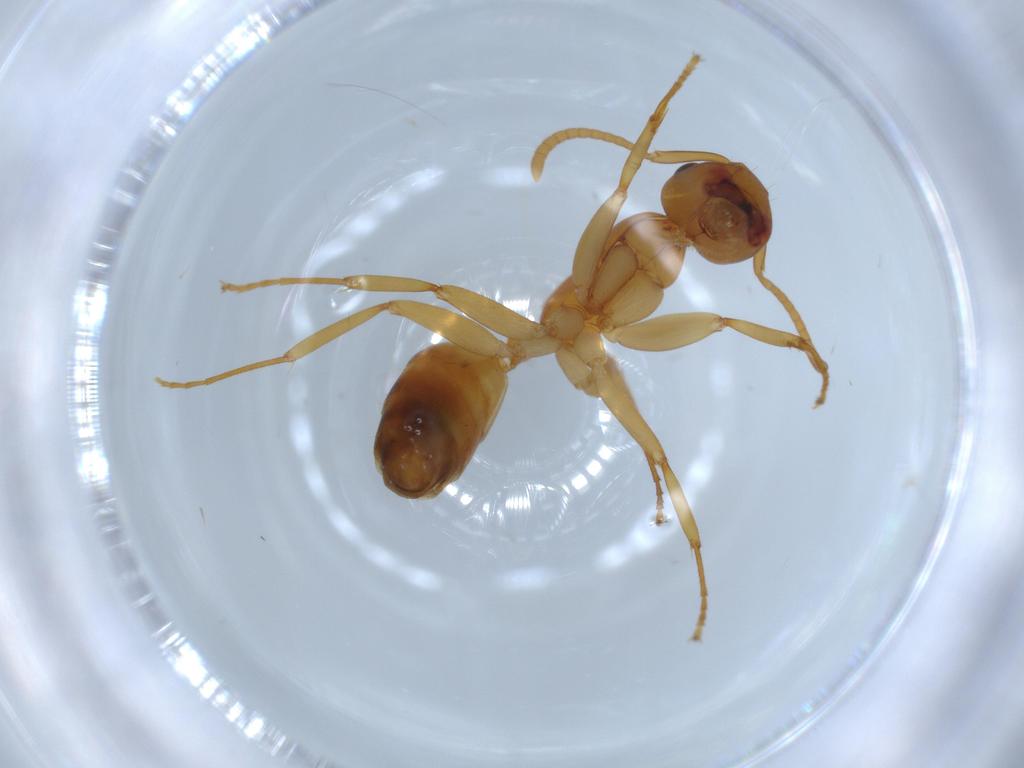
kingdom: Animalia
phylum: Arthropoda
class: Insecta
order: Hymenoptera
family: Formicidae
